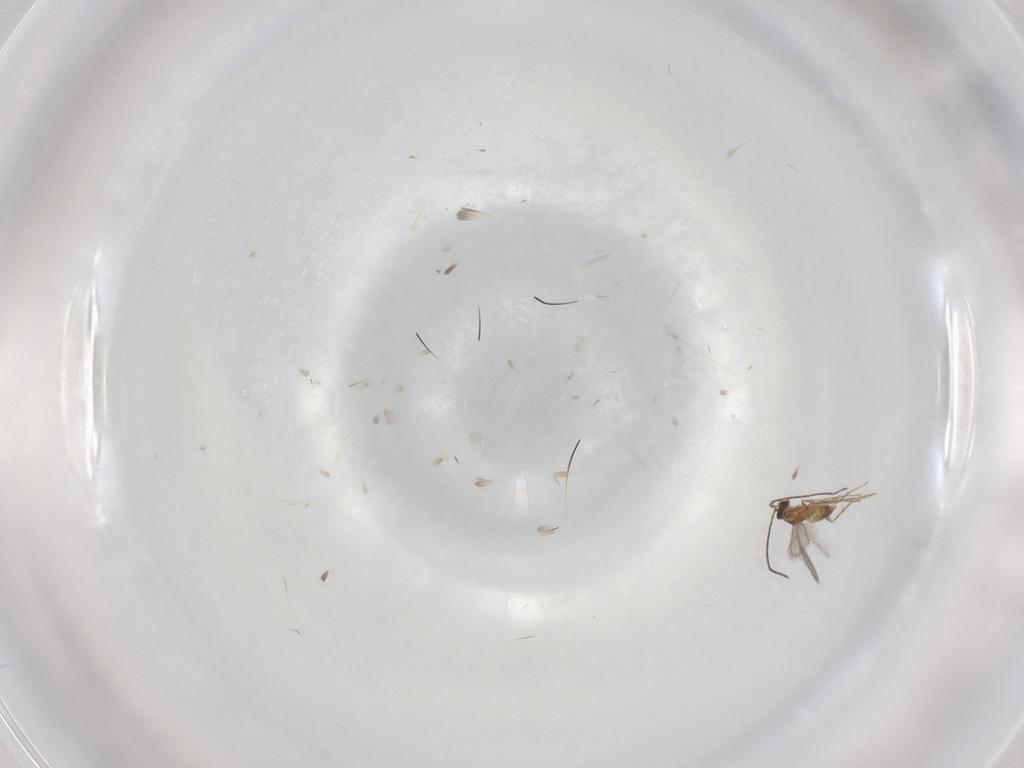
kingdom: Animalia
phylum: Arthropoda
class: Insecta
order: Hymenoptera
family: Mymaridae
